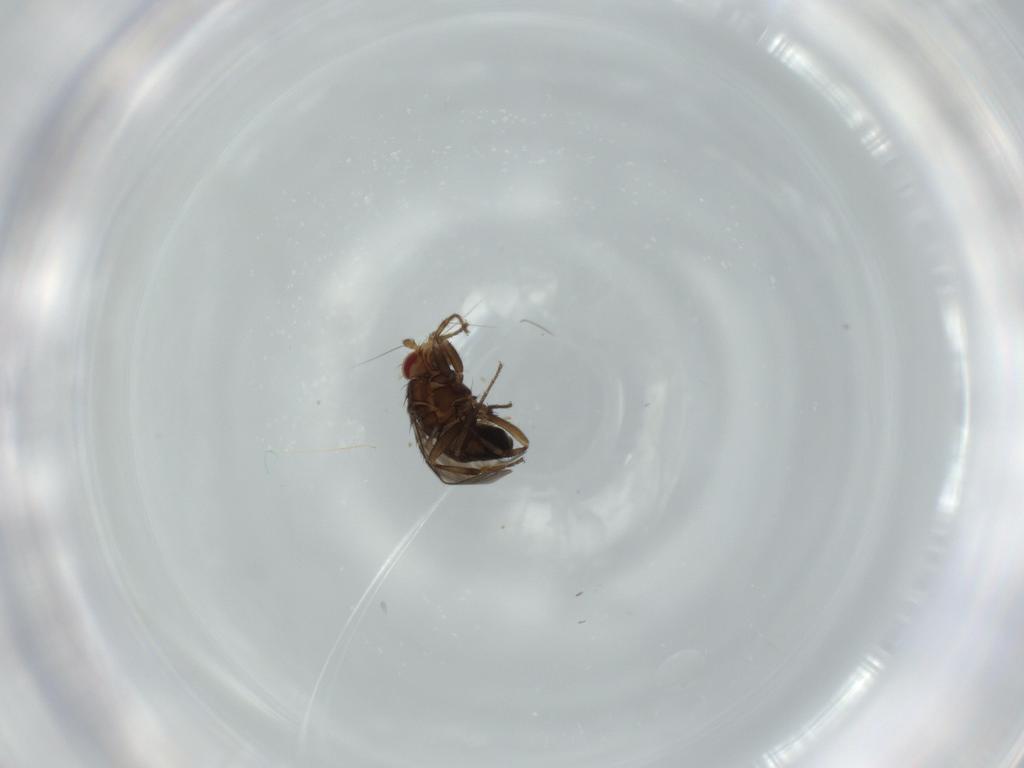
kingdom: Animalia
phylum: Arthropoda
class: Insecta
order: Diptera
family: Sphaeroceridae
